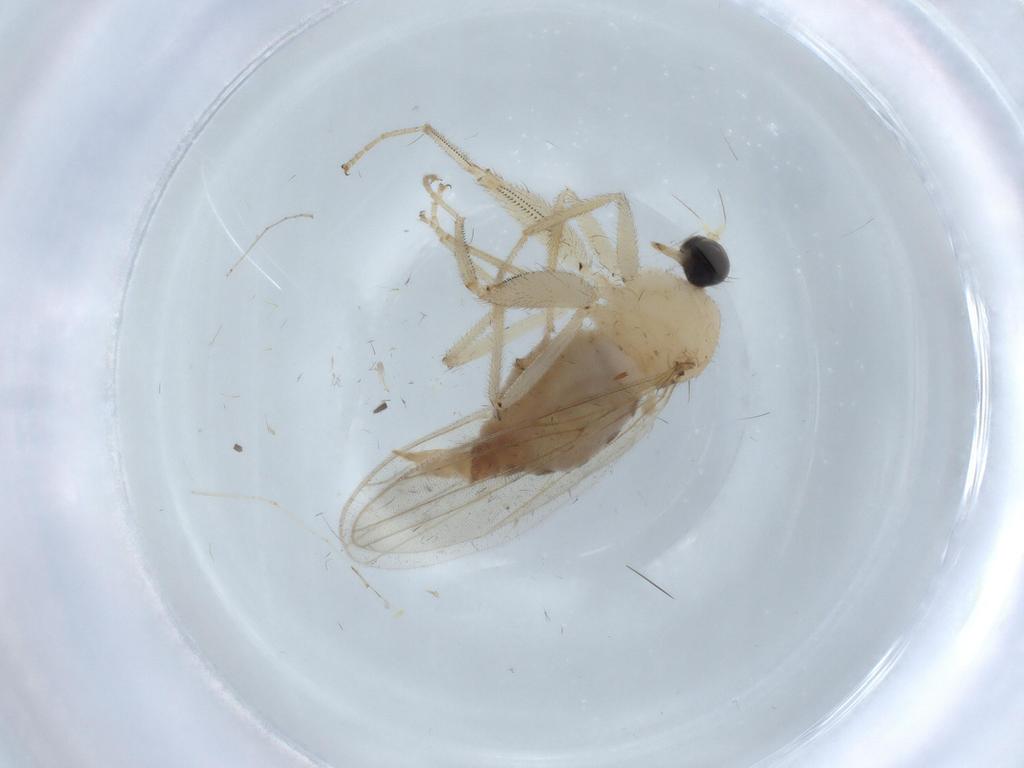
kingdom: Animalia
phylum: Arthropoda
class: Insecta
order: Diptera
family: Hybotidae
